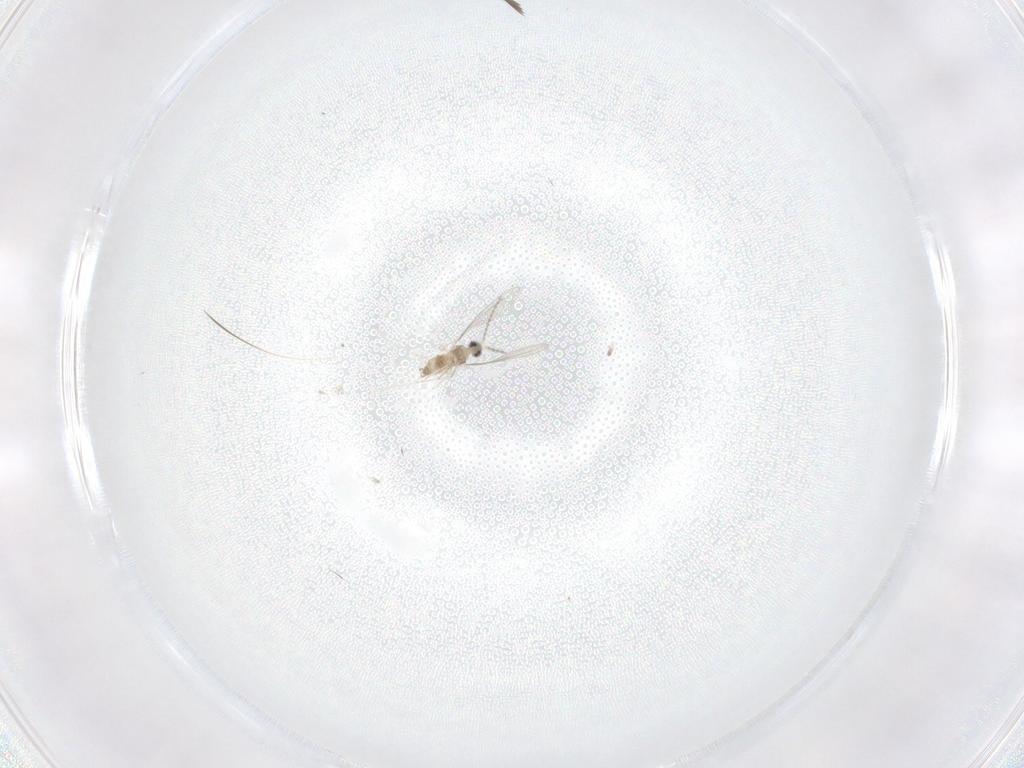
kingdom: Animalia
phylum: Arthropoda
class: Insecta
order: Diptera
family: Cecidomyiidae
